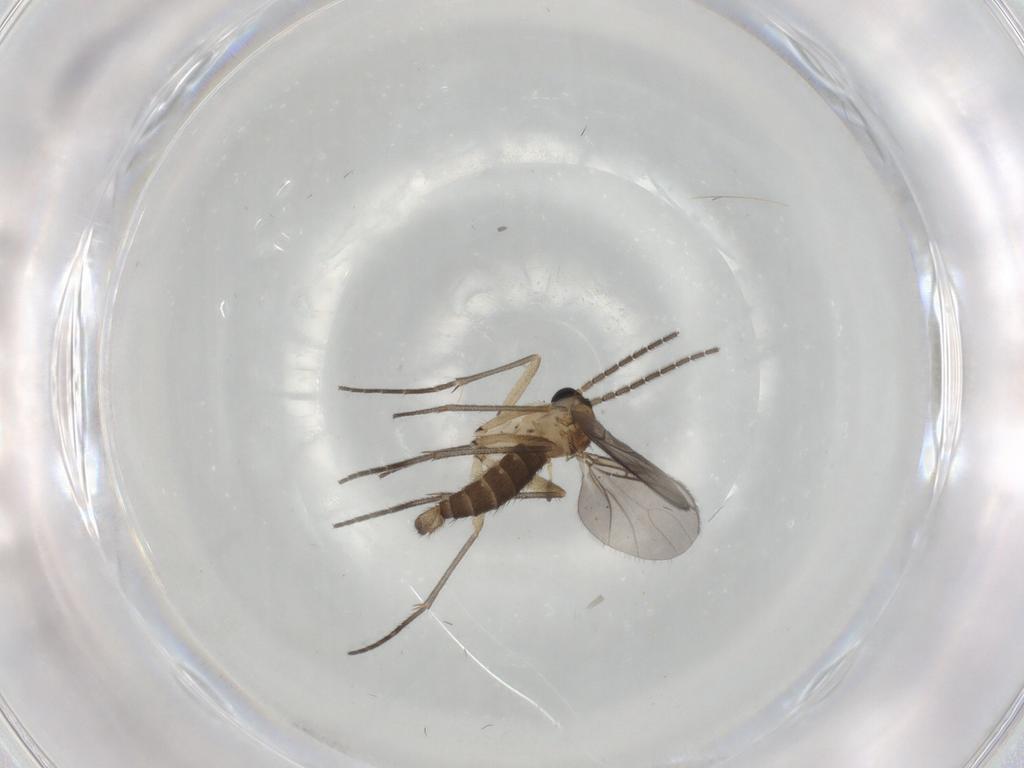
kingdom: Animalia
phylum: Arthropoda
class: Insecta
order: Diptera
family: Sciaridae
